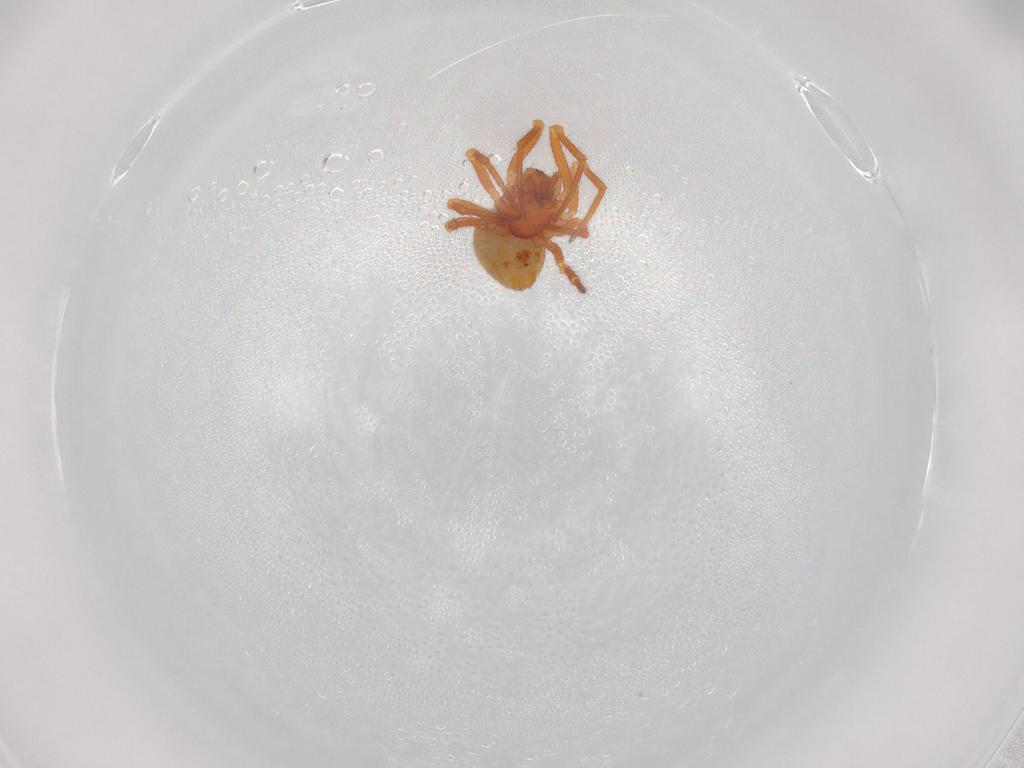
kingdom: Animalia
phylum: Arthropoda
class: Arachnida
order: Araneae
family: Theridiidae
